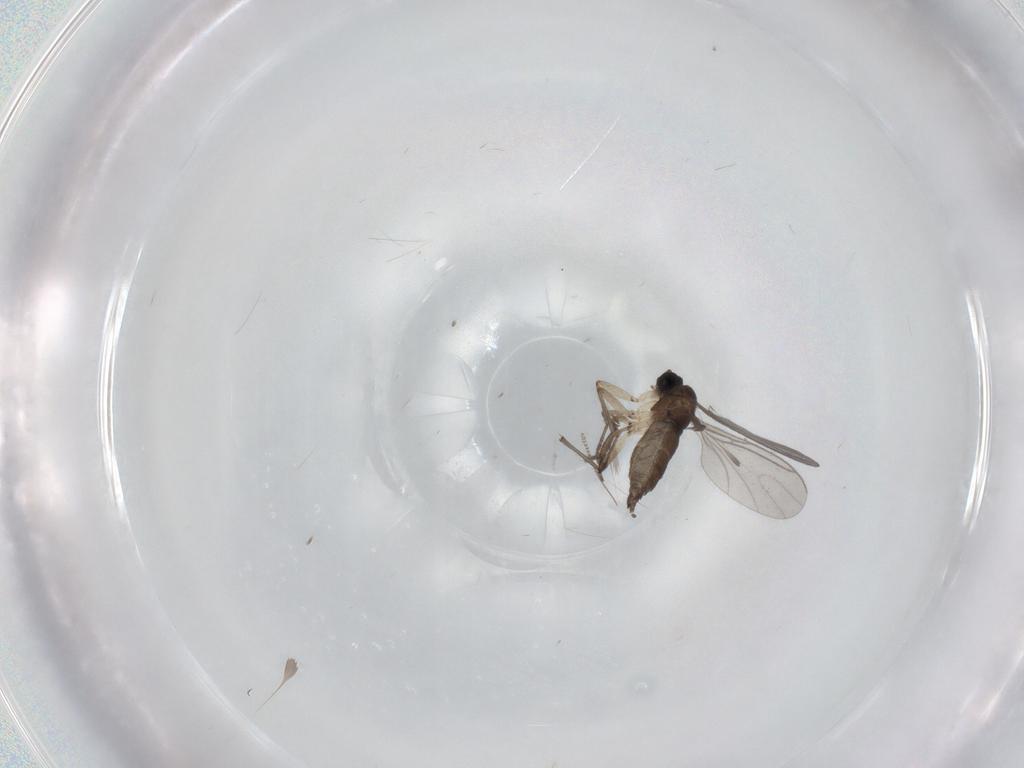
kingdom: Animalia
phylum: Arthropoda
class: Insecta
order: Diptera
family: Sciaridae
